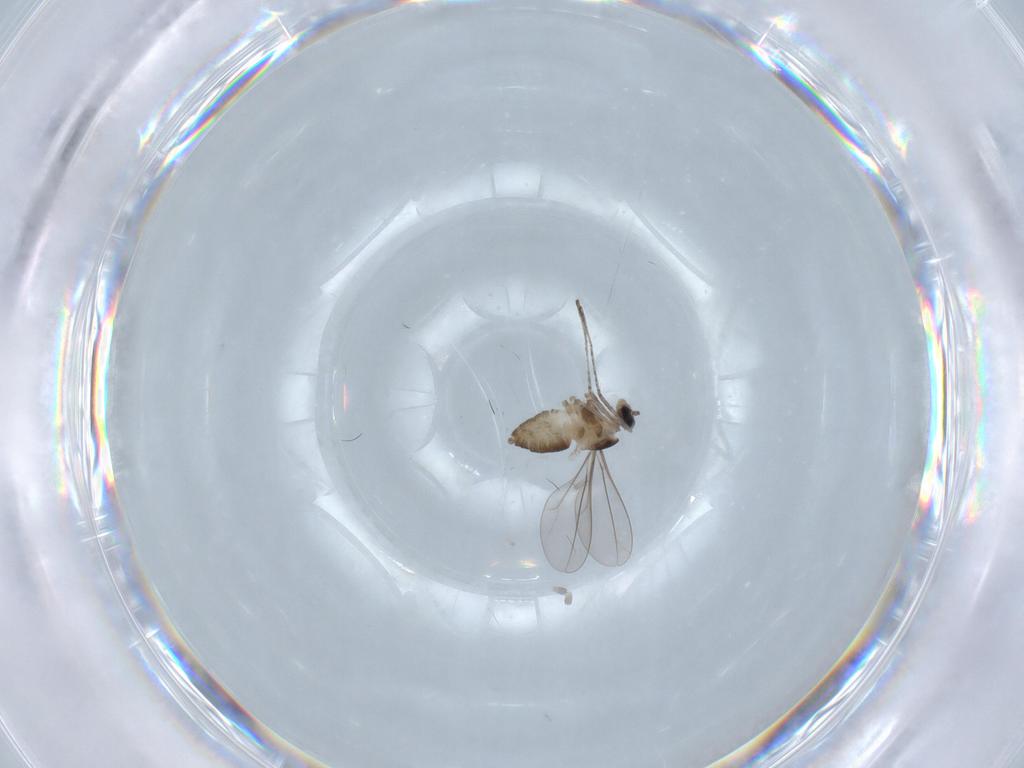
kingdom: Animalia
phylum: Arthropoda
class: Insecta
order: Diptera
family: Cecidomyiidae
